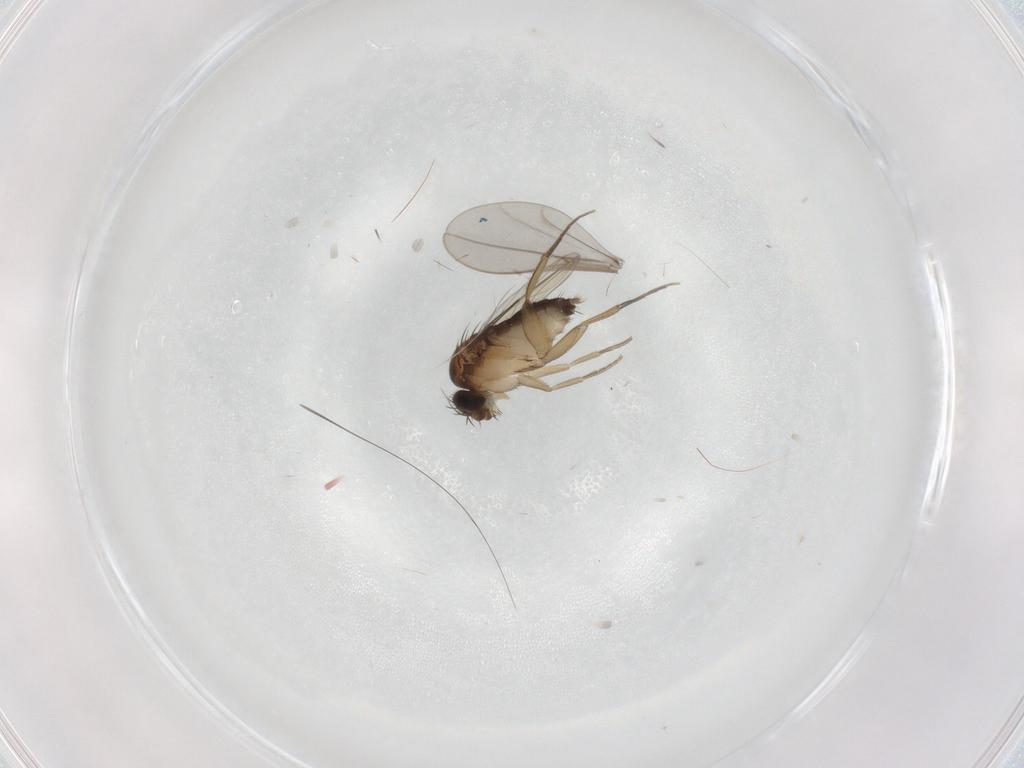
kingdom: Animalia
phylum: Arthropoda
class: Insecta
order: Diptera
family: Phoridae
